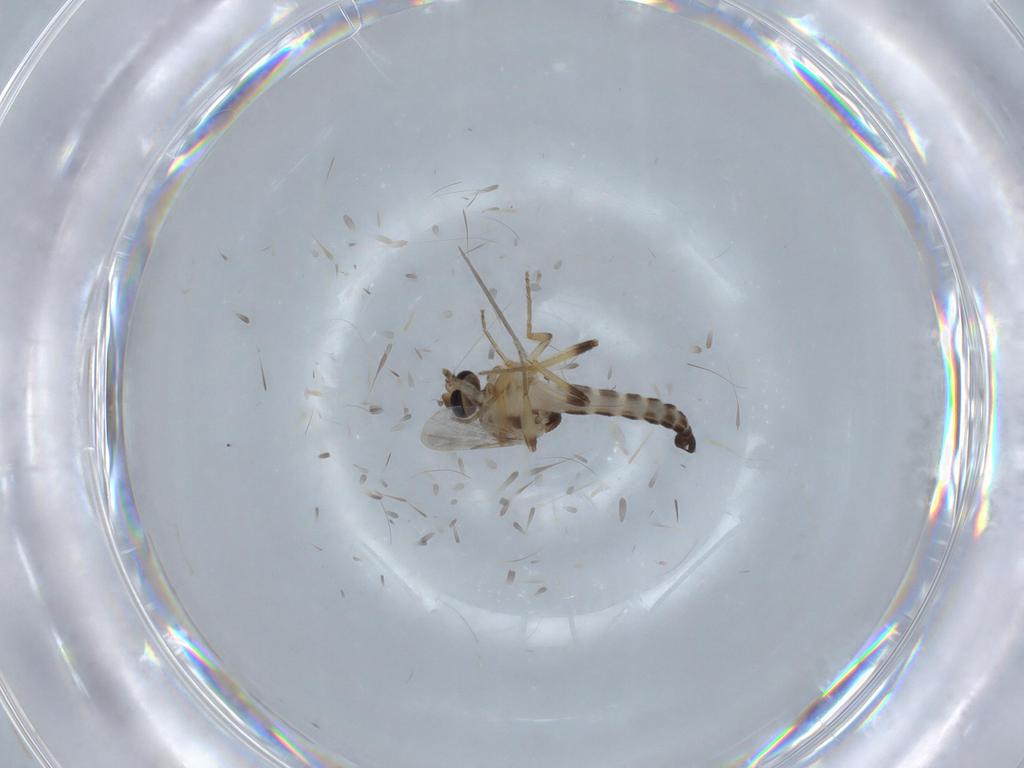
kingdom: Animalia
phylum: Arthropoda
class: Insecta
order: Diptera
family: Ceratopogonidae
